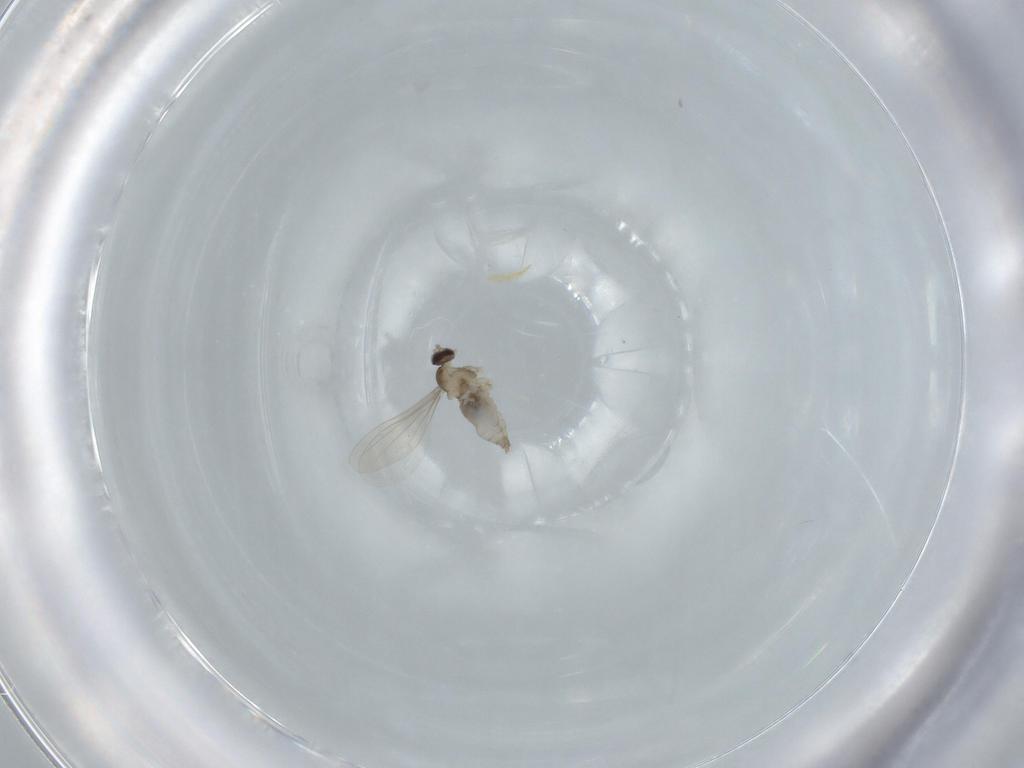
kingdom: Animalia
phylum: Arthropoda
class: Insecta
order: Diptera
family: Cecidomyiidae
